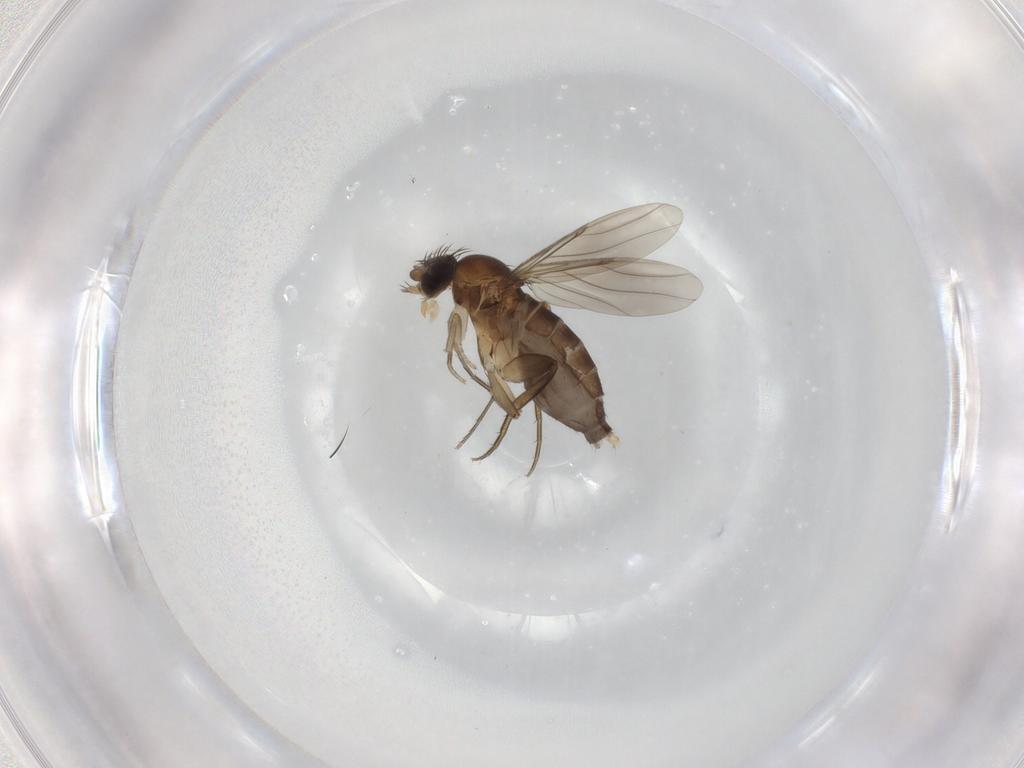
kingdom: Animalia
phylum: Arthropoda
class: Insecta
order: Diptera
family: Phoridae
